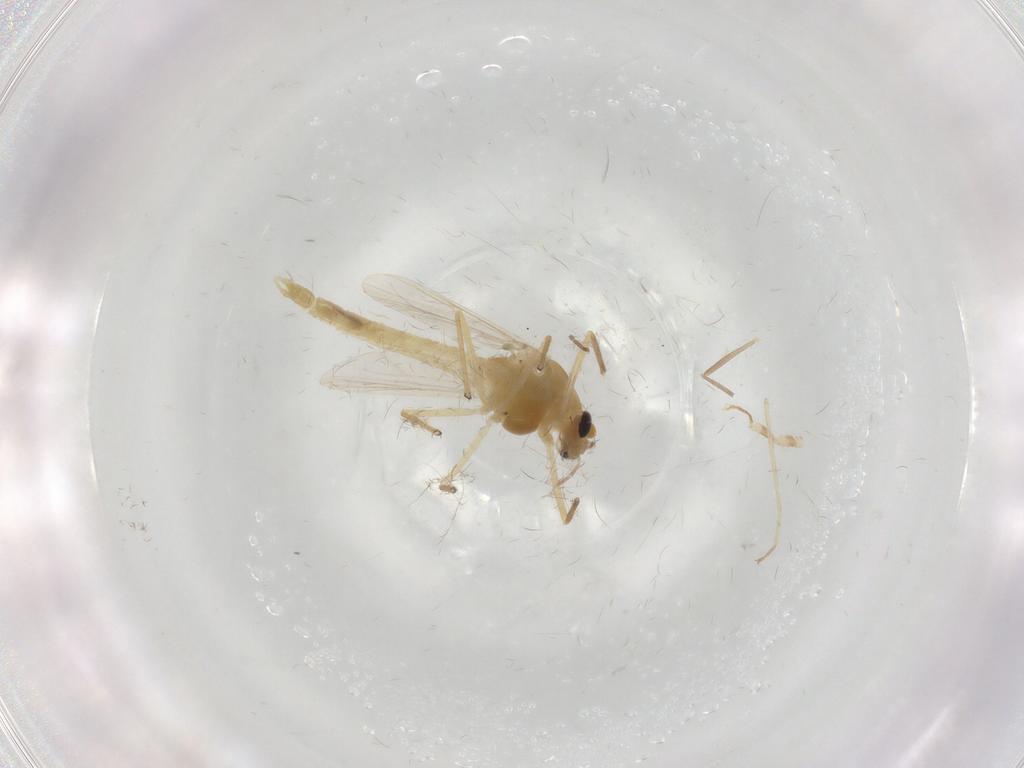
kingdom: Animalia
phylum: Arthropoda
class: Insecta
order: Diptera
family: Chironomidae
